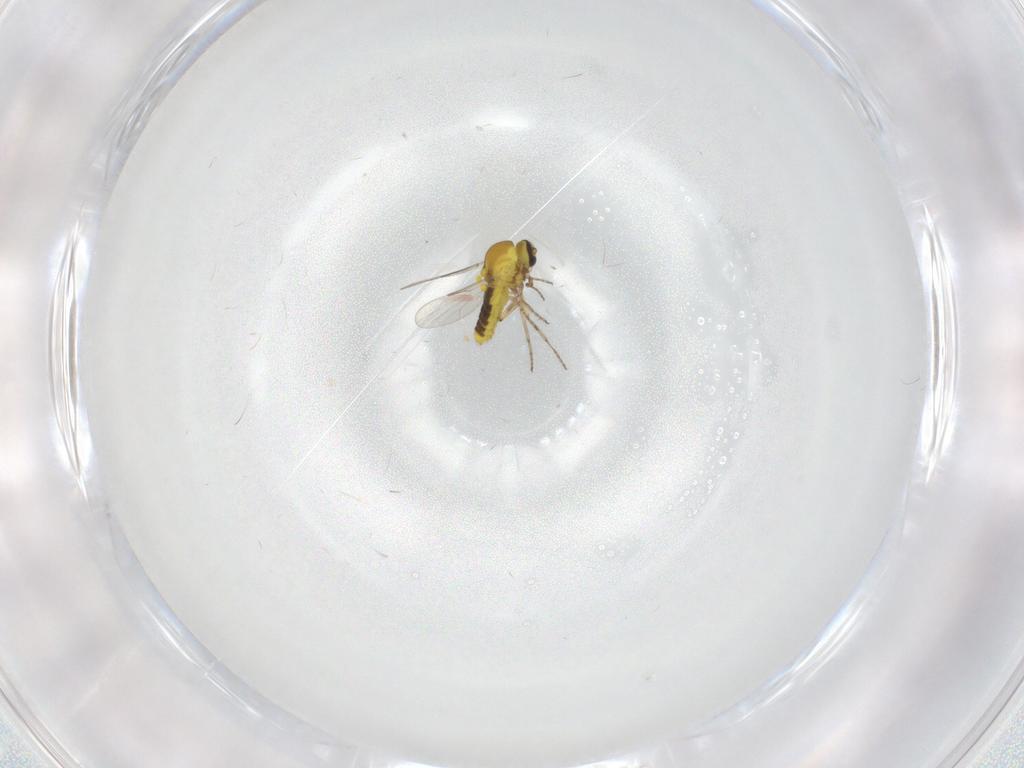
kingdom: Animalia
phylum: Arthropoda
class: Insecta
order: Diptera
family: Ceratopogonidae
